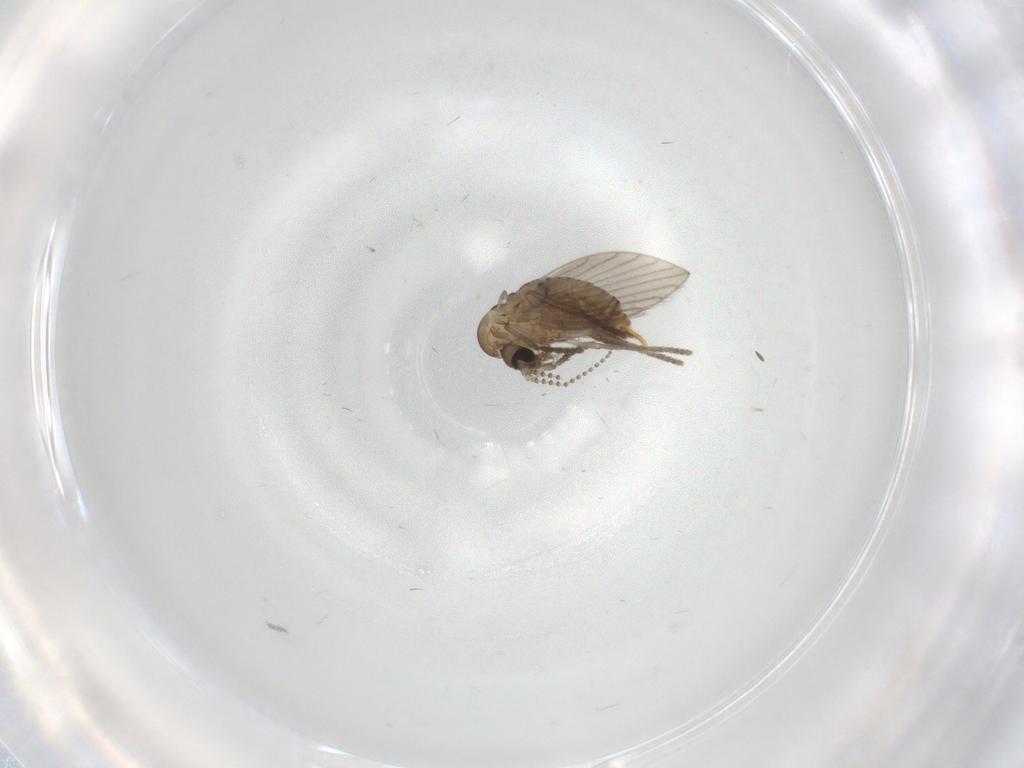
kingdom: Animalia
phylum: Arthropoda
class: Insecta
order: Diptera
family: Psychodidae
